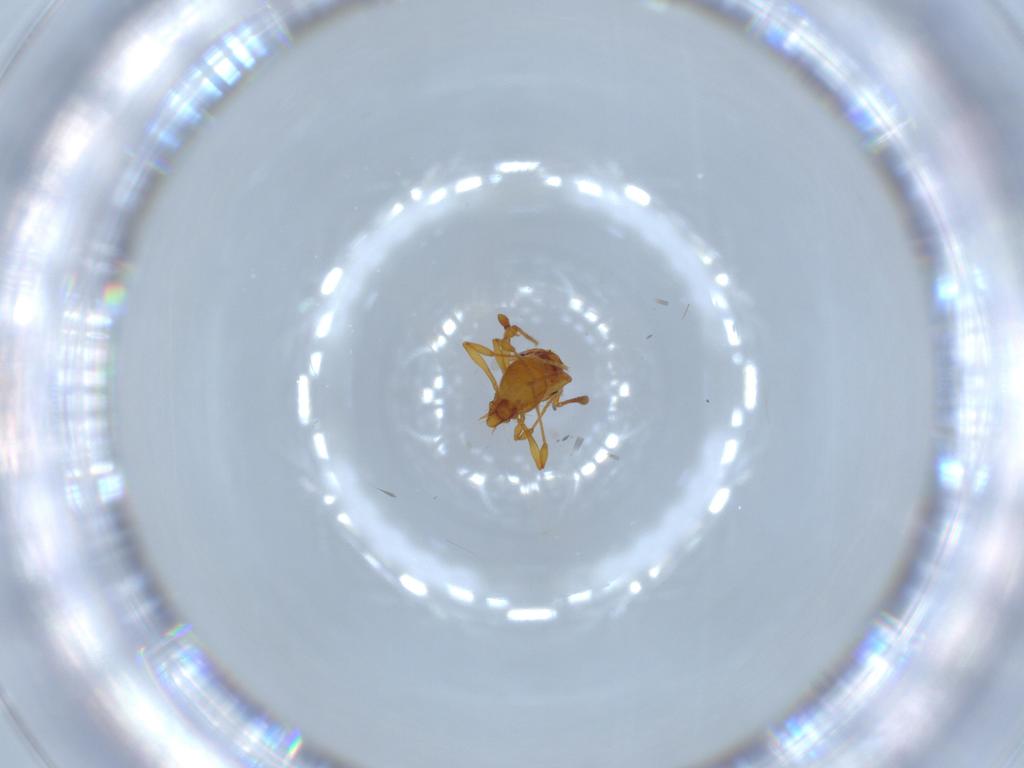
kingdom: Animalia
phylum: Arthropoda
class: Insecta
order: Hymenoptera
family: Formicidae
